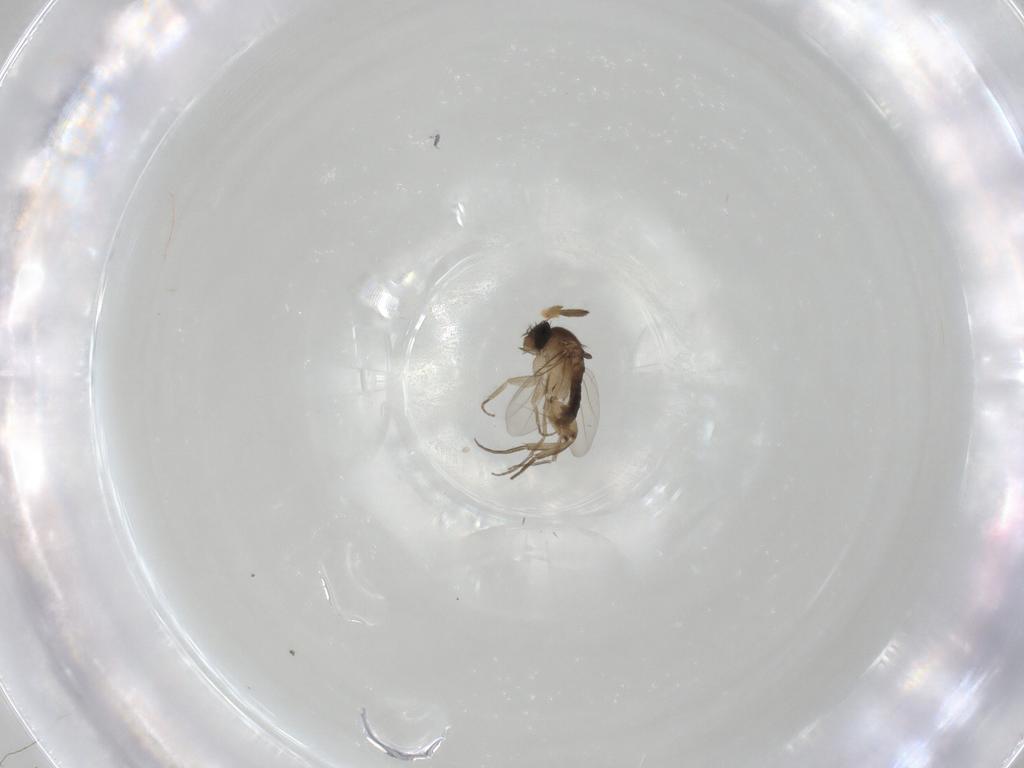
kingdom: Animalia
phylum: Arthropoda
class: Insecta
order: Diptera
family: Phoridae
